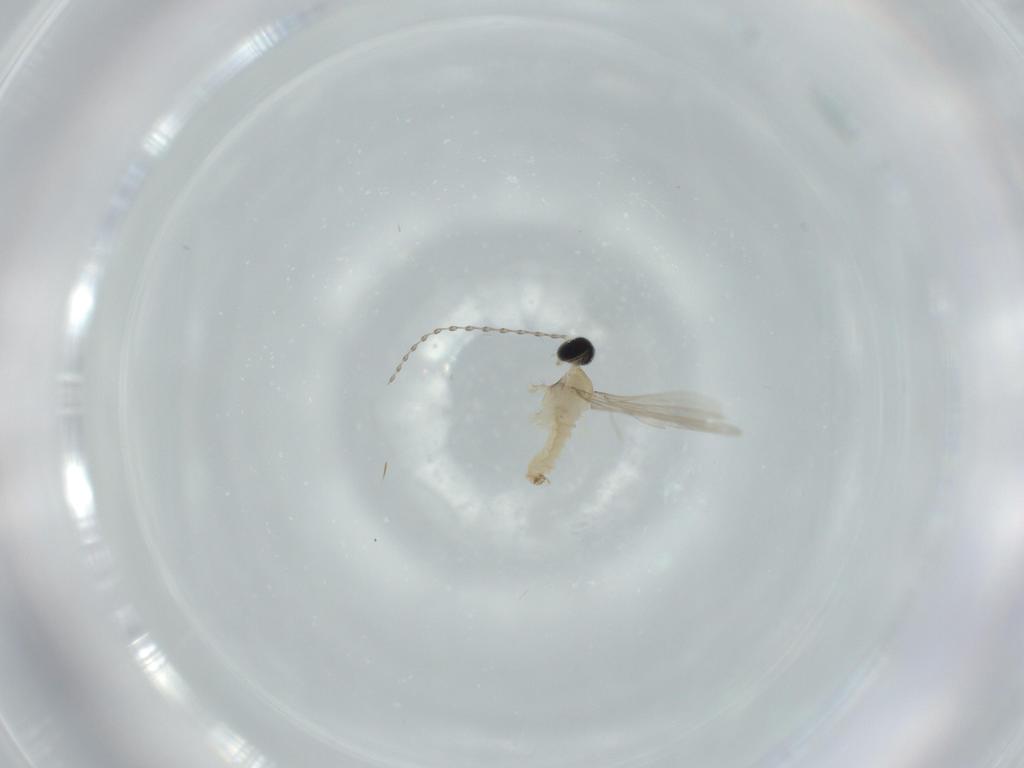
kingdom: Animalia
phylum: Arthropoda
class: Insecta
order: Diptera
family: Cecidomyiidae
